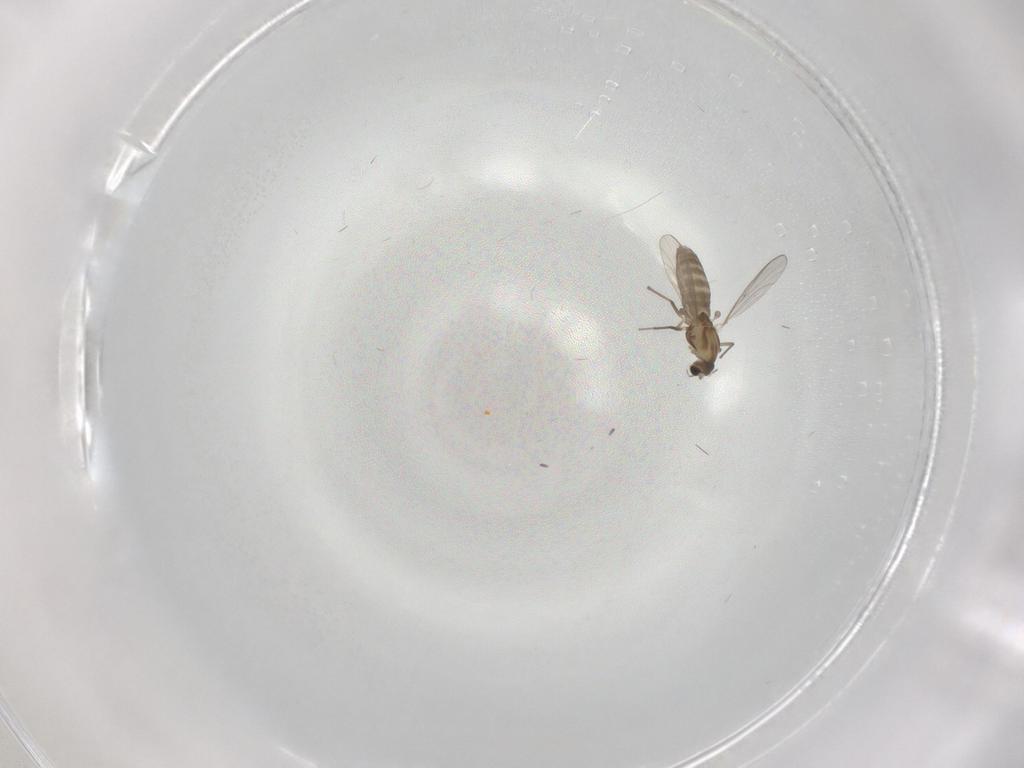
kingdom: Animalia
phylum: Arthropoda
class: Insecta
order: Diptera
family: Chironomidae
